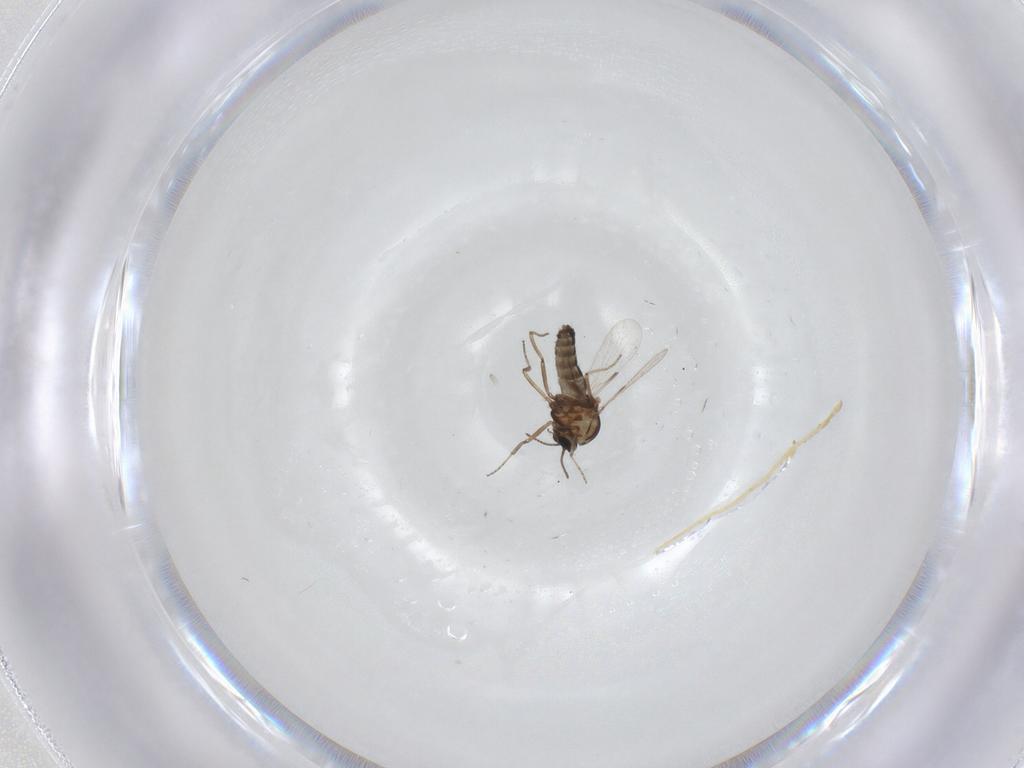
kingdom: Animalia
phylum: Arthropoda
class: Insecta
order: Diptera
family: Ceratopogonidae
